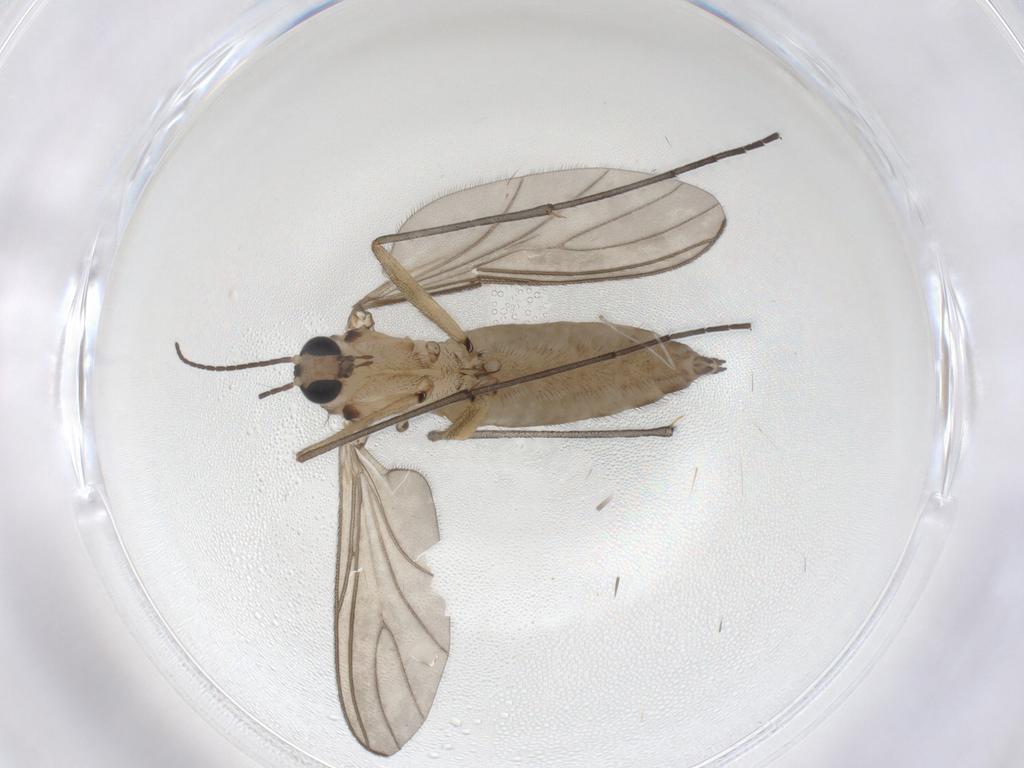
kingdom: Animalia
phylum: Arthropoda
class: Insecta
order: Diptera
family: Sciaridae
